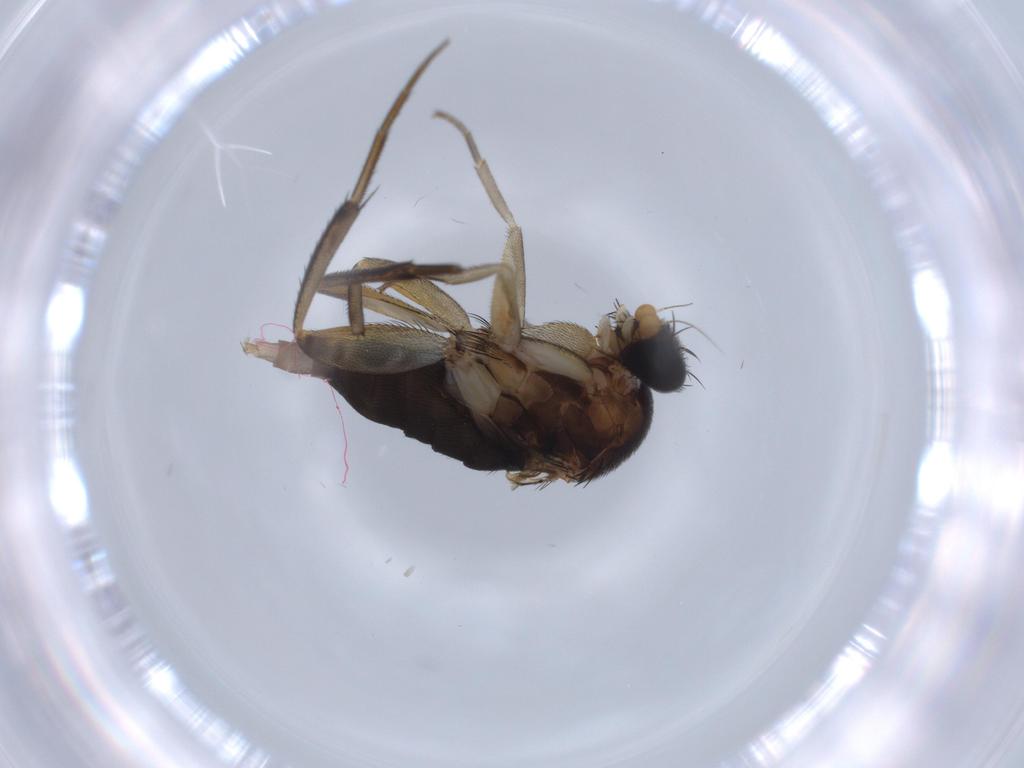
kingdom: Animalia
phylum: Arthropoda
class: Insecta
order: Diptera
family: Phoridae
